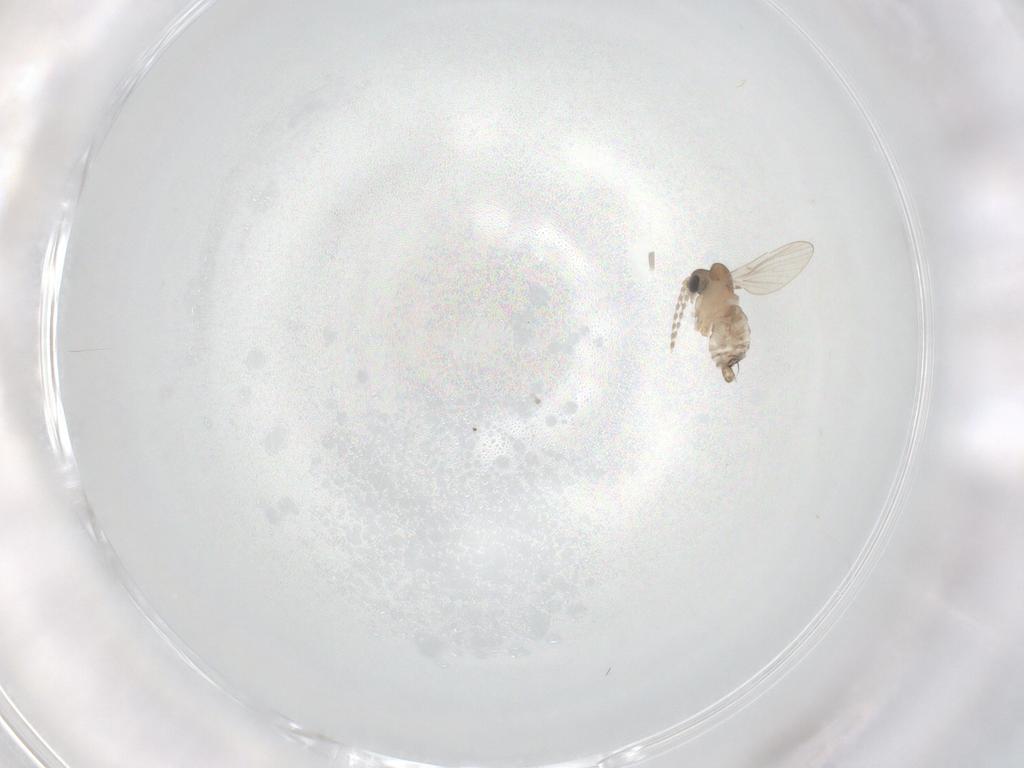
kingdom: Animalia
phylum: Arthropoda
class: Insecta
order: Diptera
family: Psychodidae
